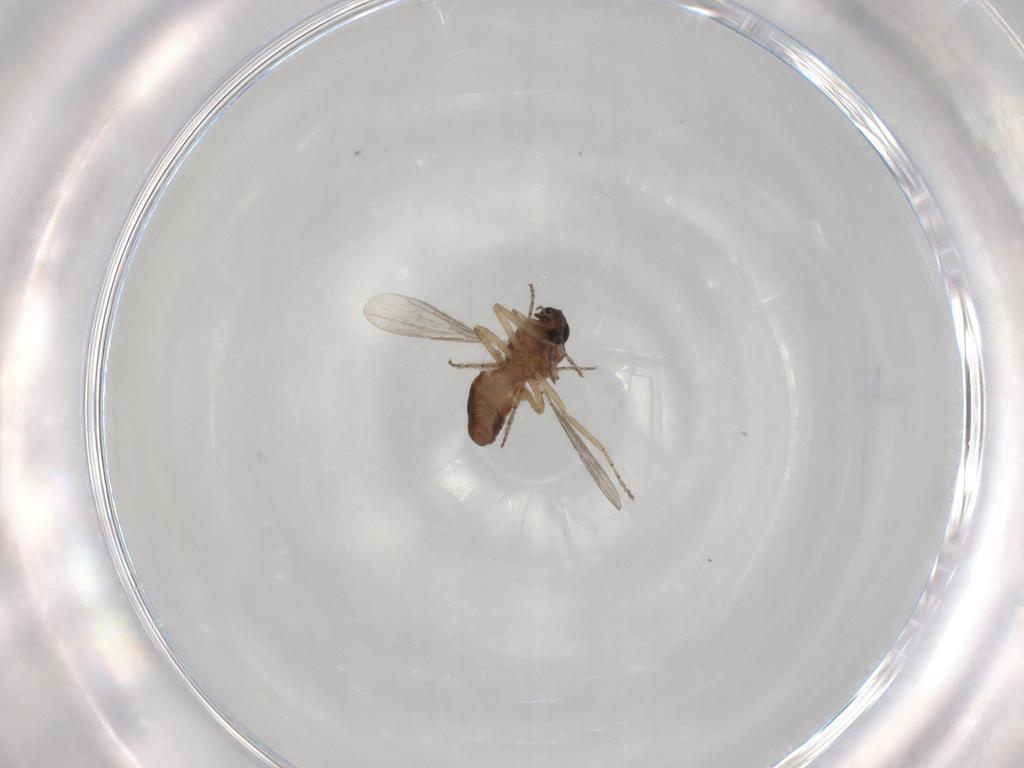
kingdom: Animalia
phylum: Arthropoda
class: Insecta
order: Diptera
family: Ceratopogonidae
